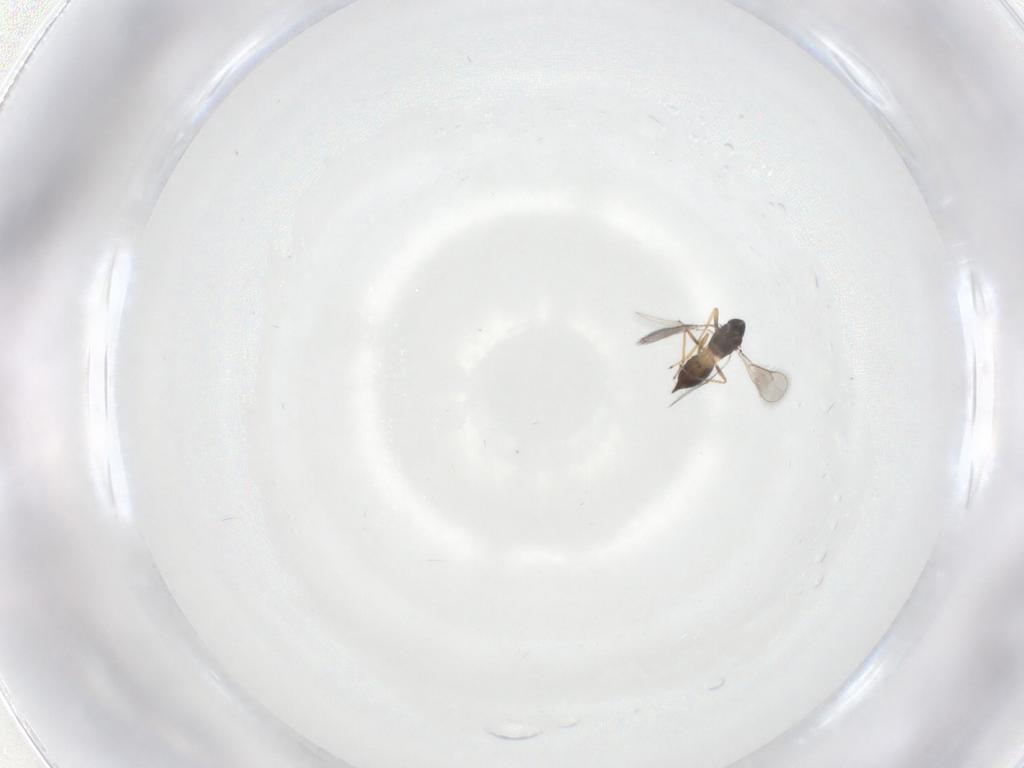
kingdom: Animalia
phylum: Arthropoda
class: Insecta
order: Hymenoptera
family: Eulophidae
